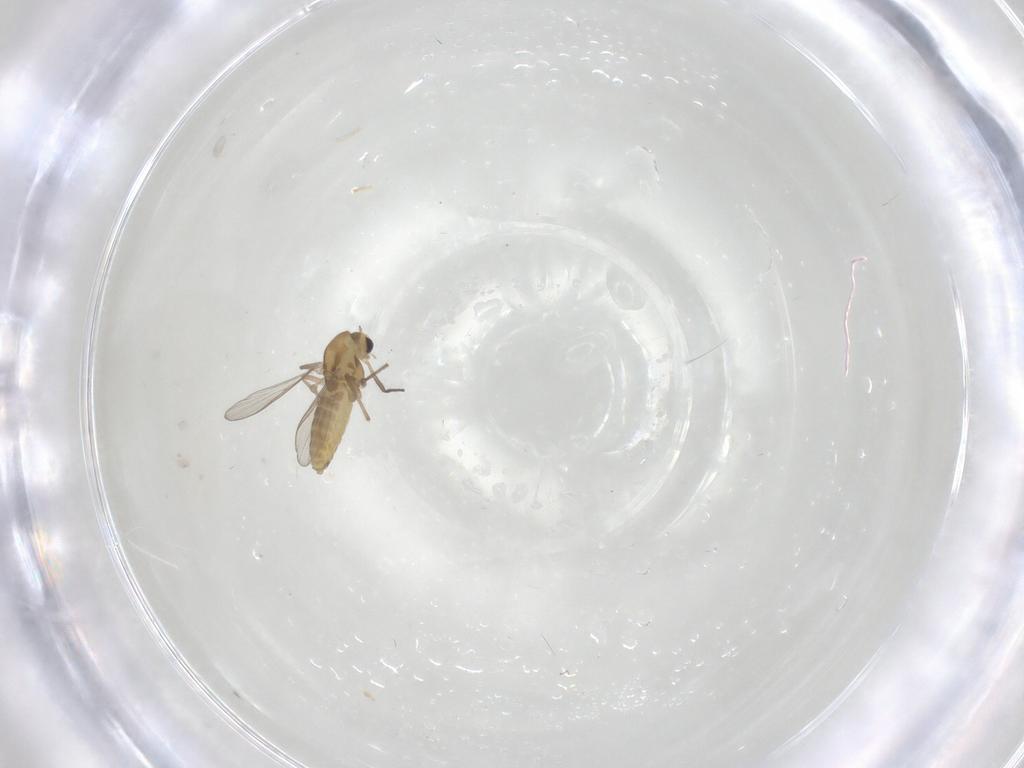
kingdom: Animalia
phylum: Arthropoda
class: Insecta
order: Diptera
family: Chironomidae
